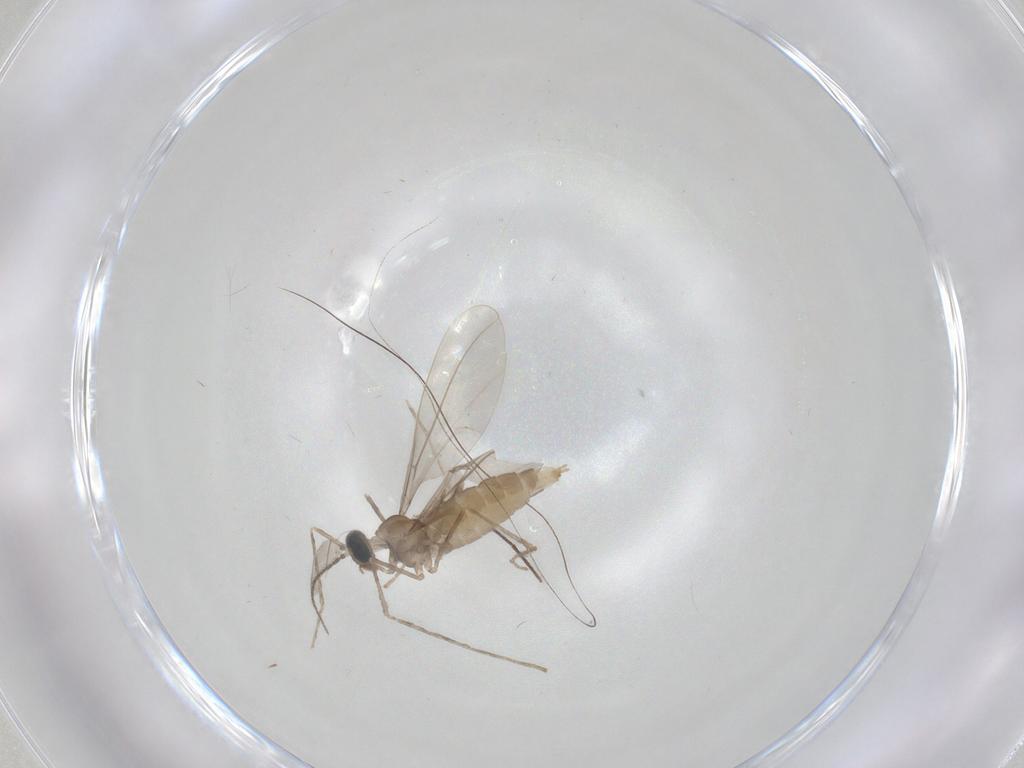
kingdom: Animalia
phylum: Arthropoda
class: Insecta
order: Diptera
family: Cecidomyiidae
